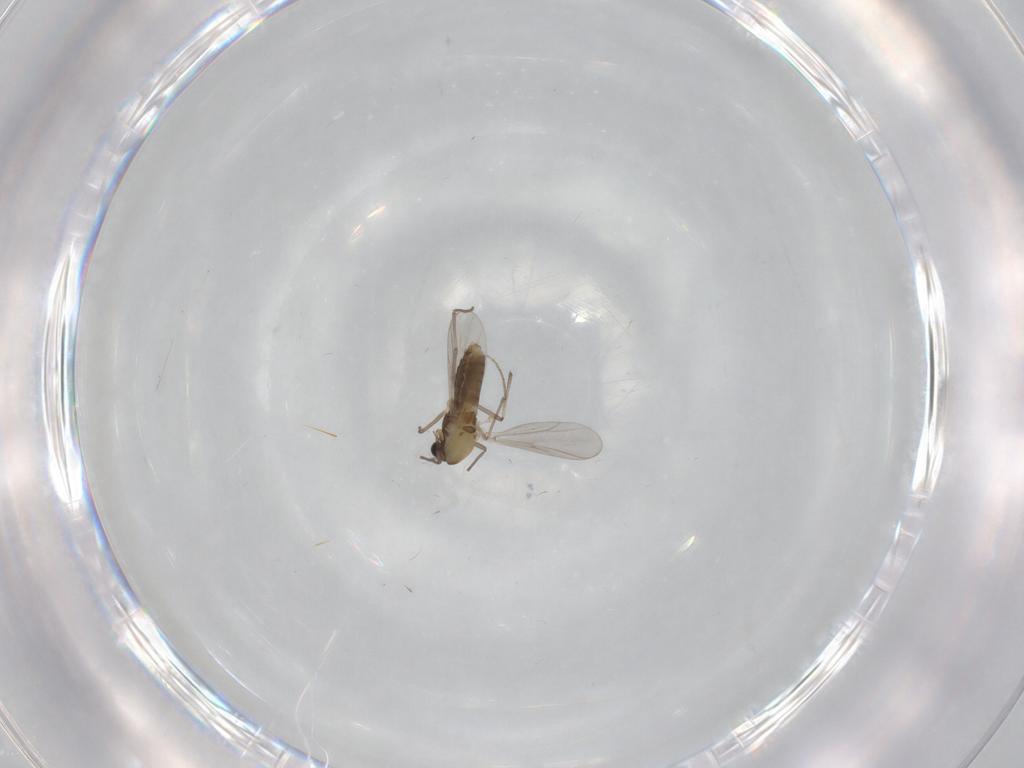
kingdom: Animalia
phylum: Arthropoda
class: Insecta
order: Diptera
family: Chironomidae
